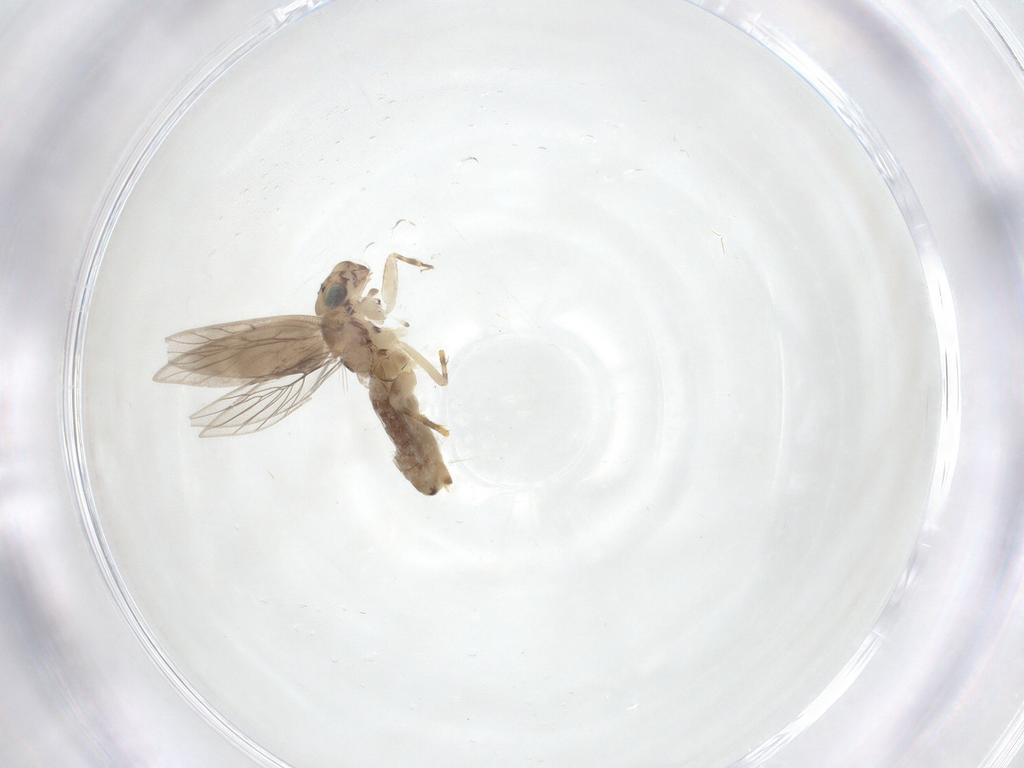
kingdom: Animalia
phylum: Arthropoda
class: Insecta
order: Psocodea
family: Lepidopsocidae
